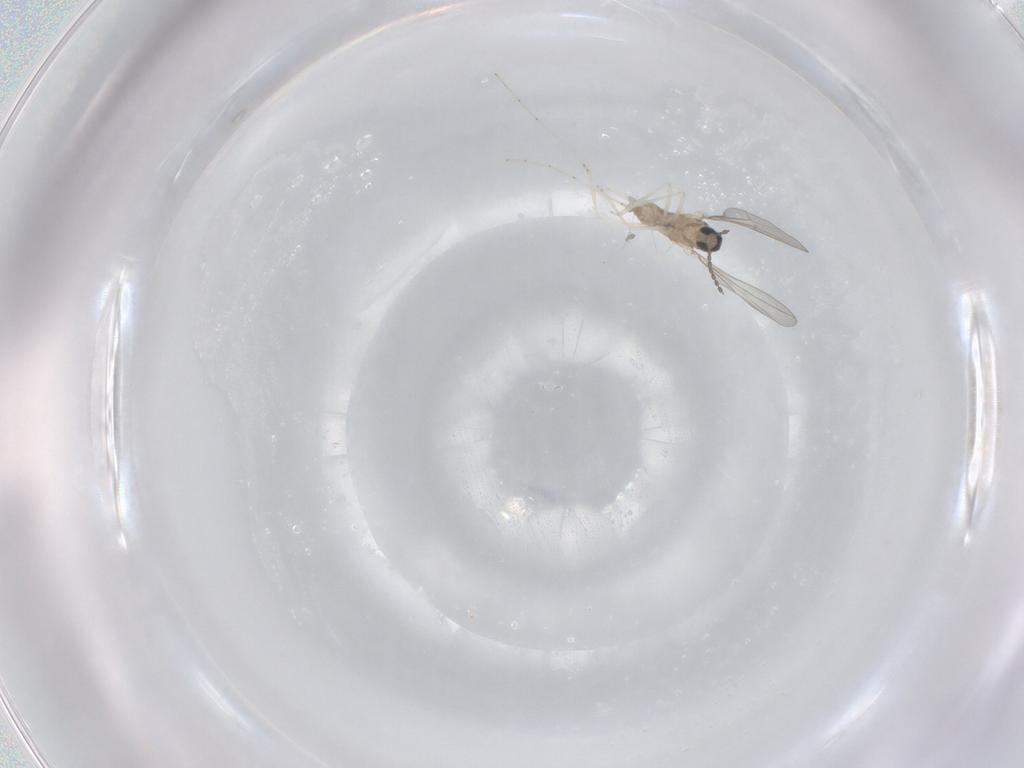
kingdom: Animalia
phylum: Arthropoda
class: Insecta
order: Diptera
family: Cecidomyiidae
